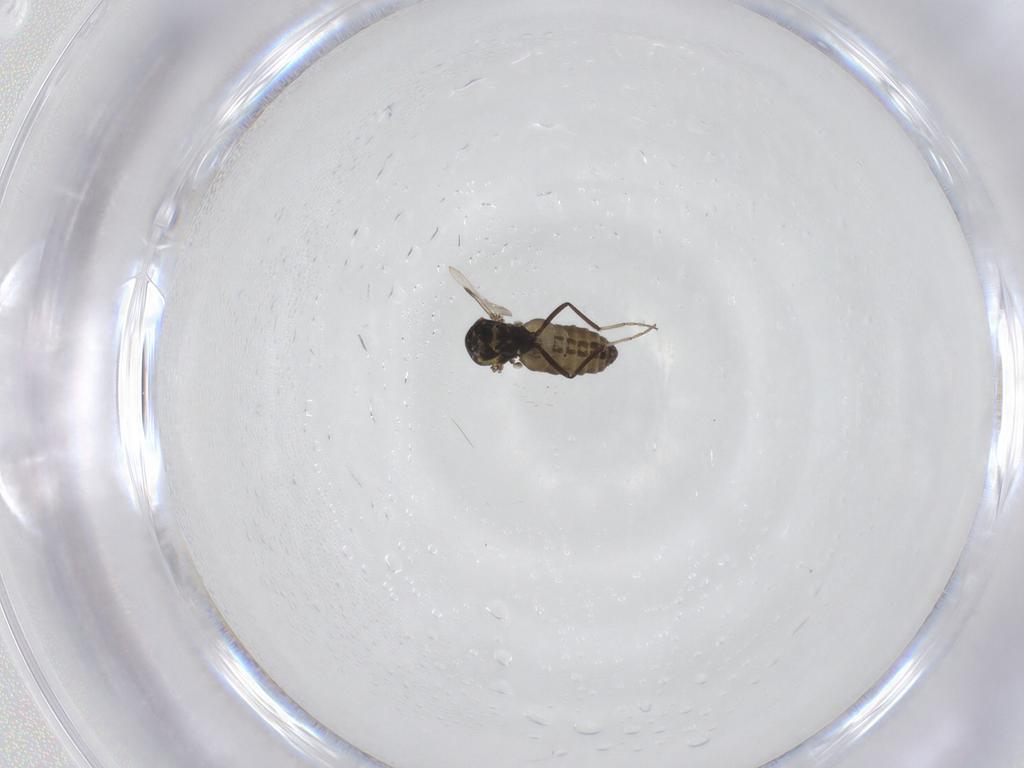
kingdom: Animalia
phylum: Arthropoda
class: Insecta
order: Diptera
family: Ceratopogonidae
